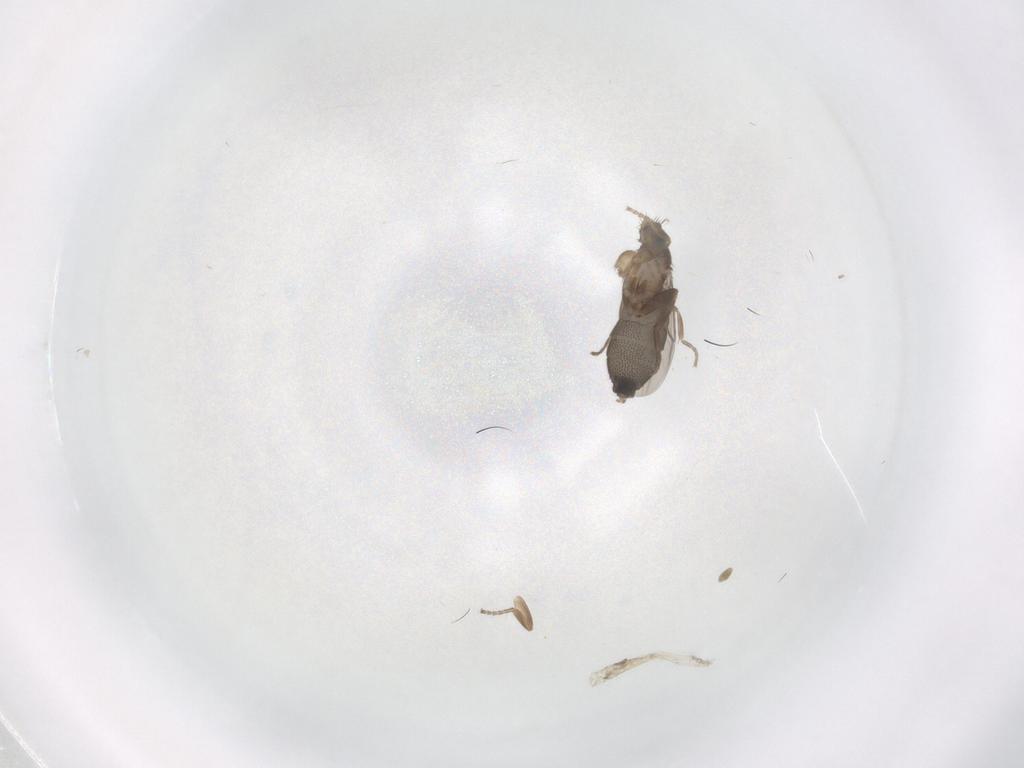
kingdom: Animalia
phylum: Arthropoda
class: Insecta
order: Diptera
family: Phoridae
